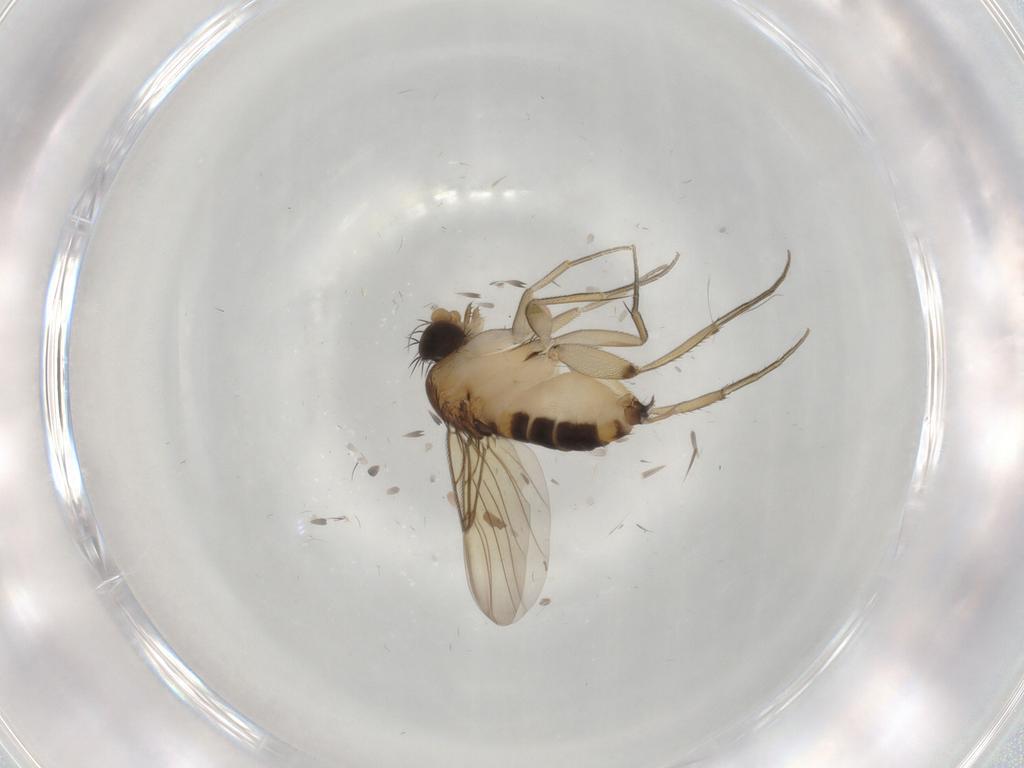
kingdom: Animalia
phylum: Arthropoda
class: Insecta
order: Diptera
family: Phoridae
